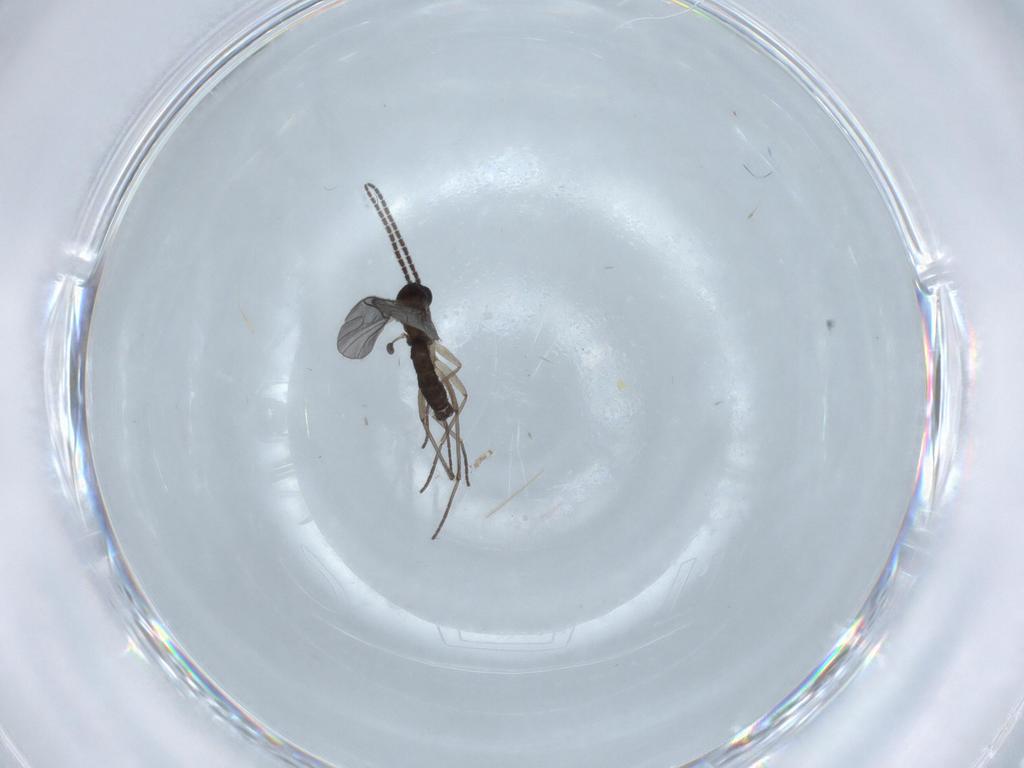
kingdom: Animalia
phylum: Arthropoda
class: Insecta
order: Diptera
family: Sciaridae
